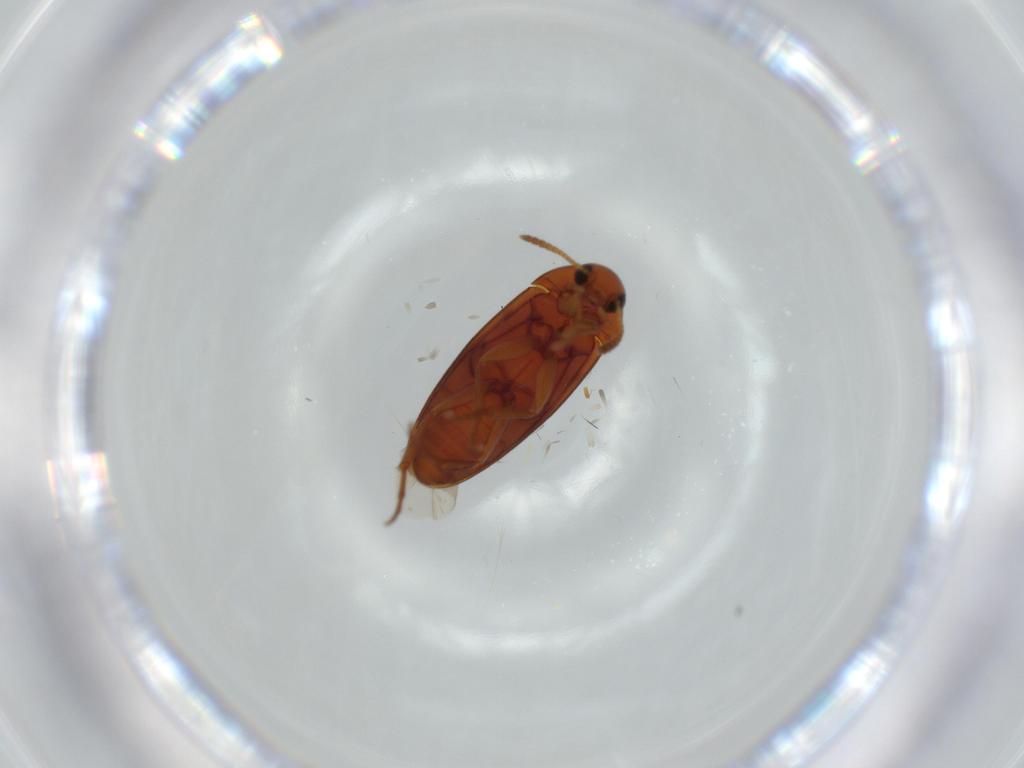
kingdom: Animalia
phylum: Arthropoda
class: Insecta
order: Coleoptera
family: Scraptiidae
